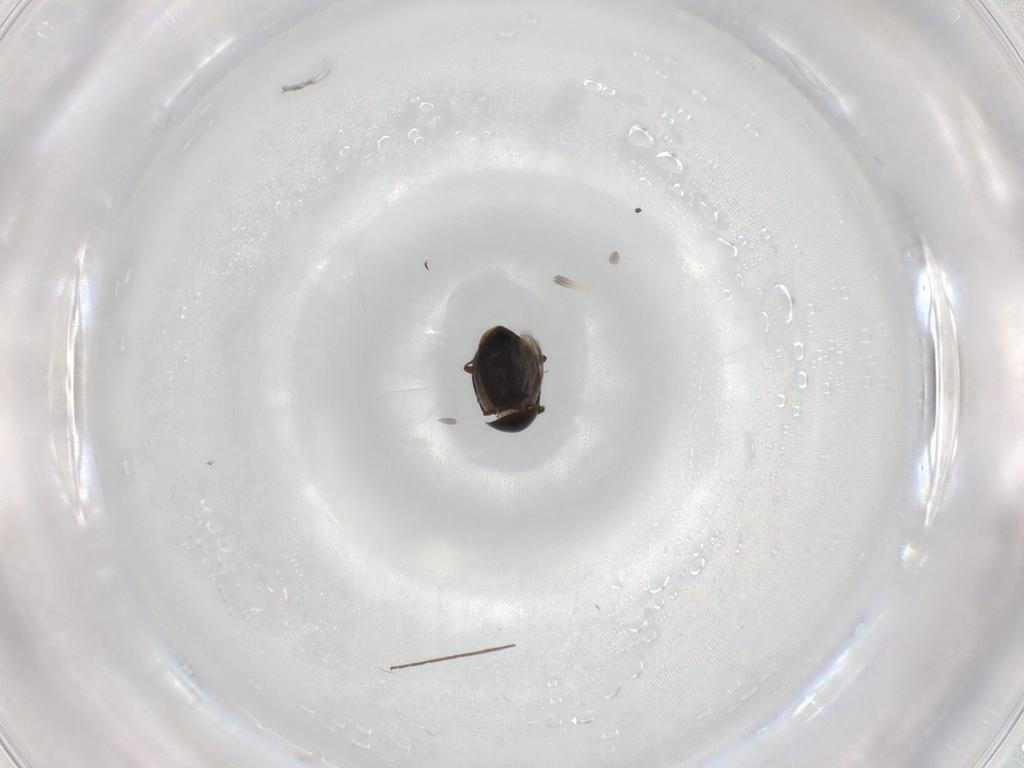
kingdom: Animalia
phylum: Arthropoda
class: Insecta
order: Coleoptera
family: Corylophidae
